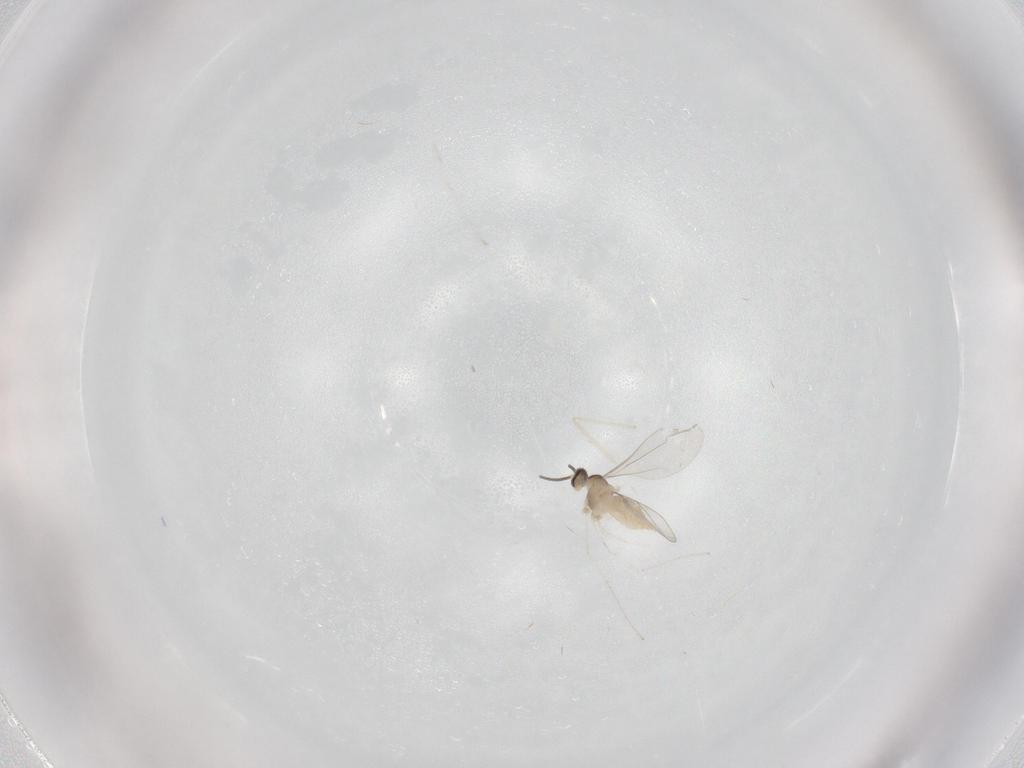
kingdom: Animalia
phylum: Arthropoda
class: Insecta
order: Diptera
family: Cecidomyiidae
